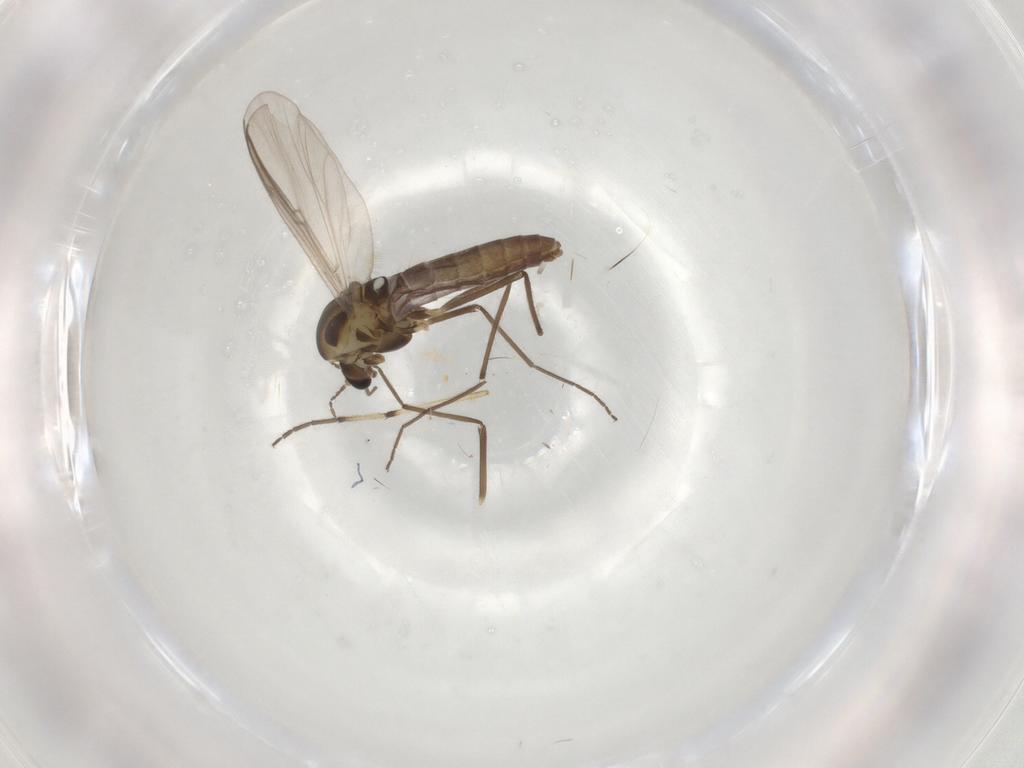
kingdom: Animalia
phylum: Arthropoda
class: Insecta
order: Diptera
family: Chironomidae
